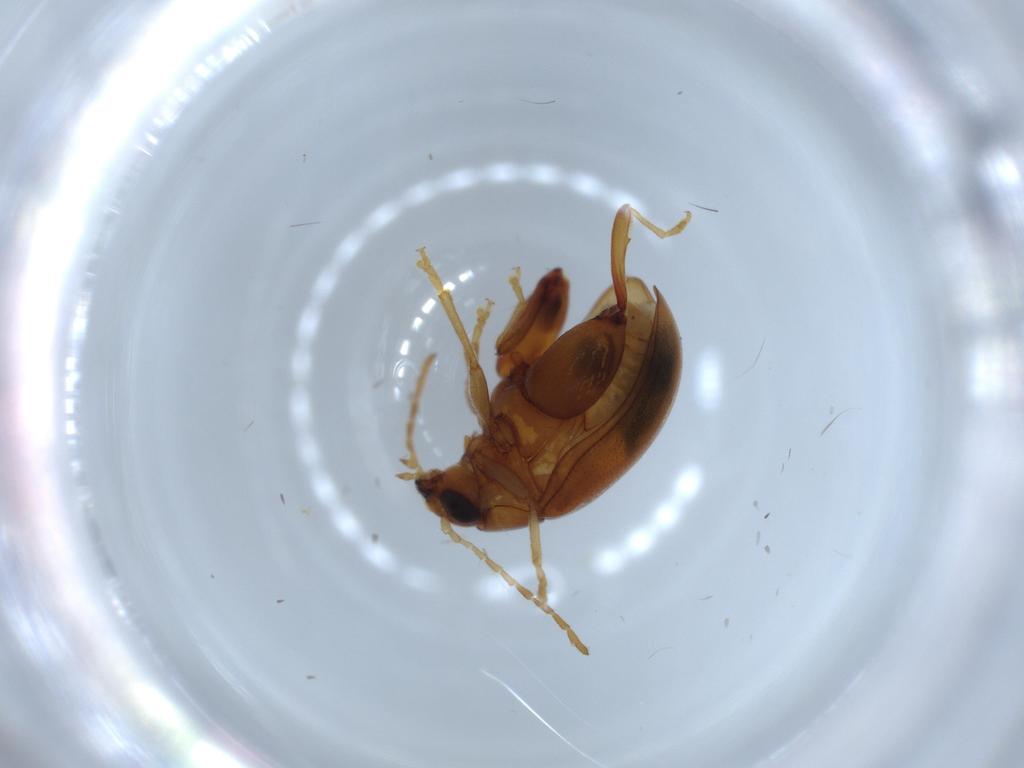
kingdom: Animalia
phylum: Arthropoda
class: Insecta
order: Coleoptera
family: Chrysomelidae
